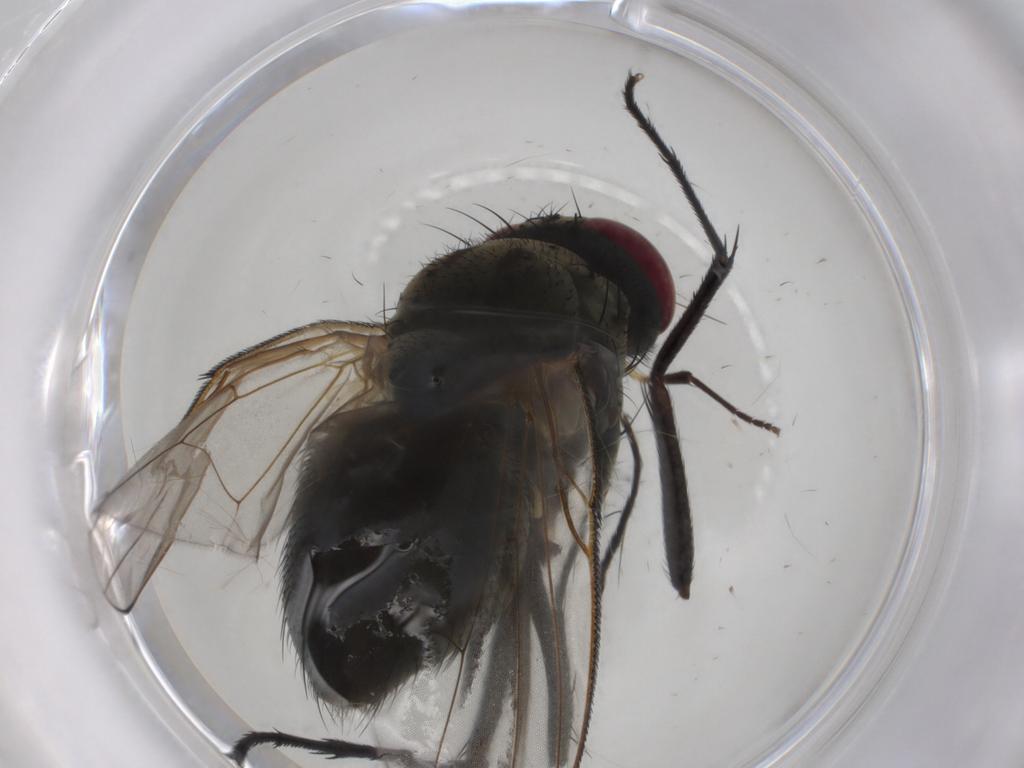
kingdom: Animalia
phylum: Arthropoda
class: Insecta
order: Diptera
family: Muscidae
